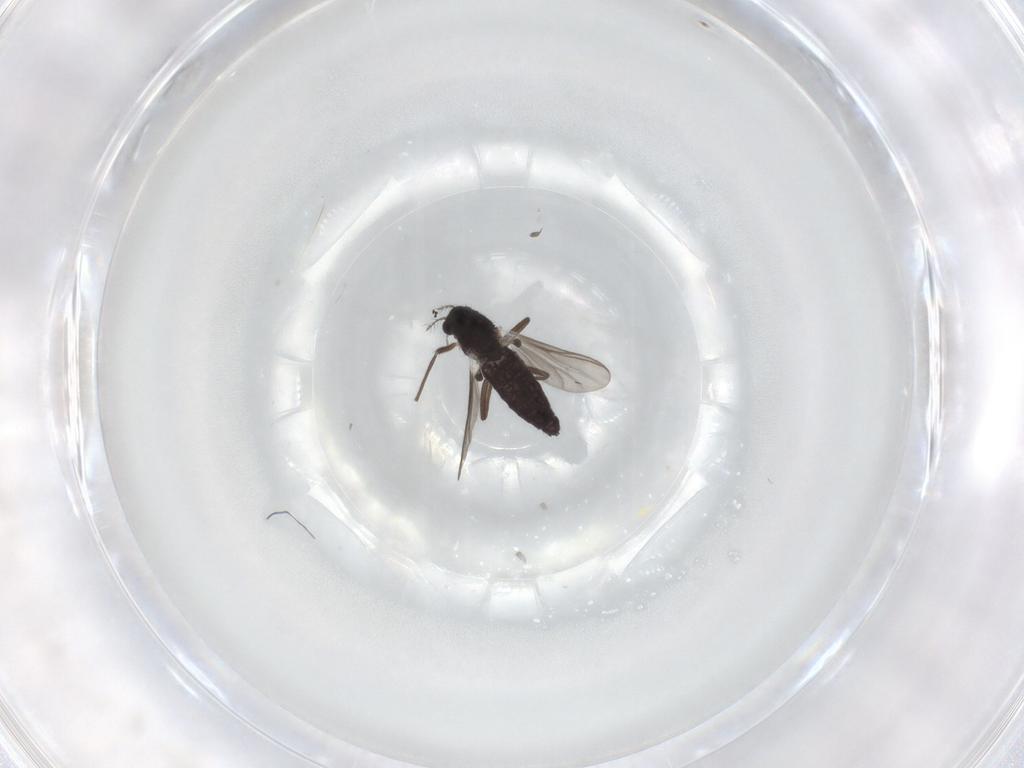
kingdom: Animalia
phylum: Arthropoda
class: Insecta
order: Diptera
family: Chironomidae
